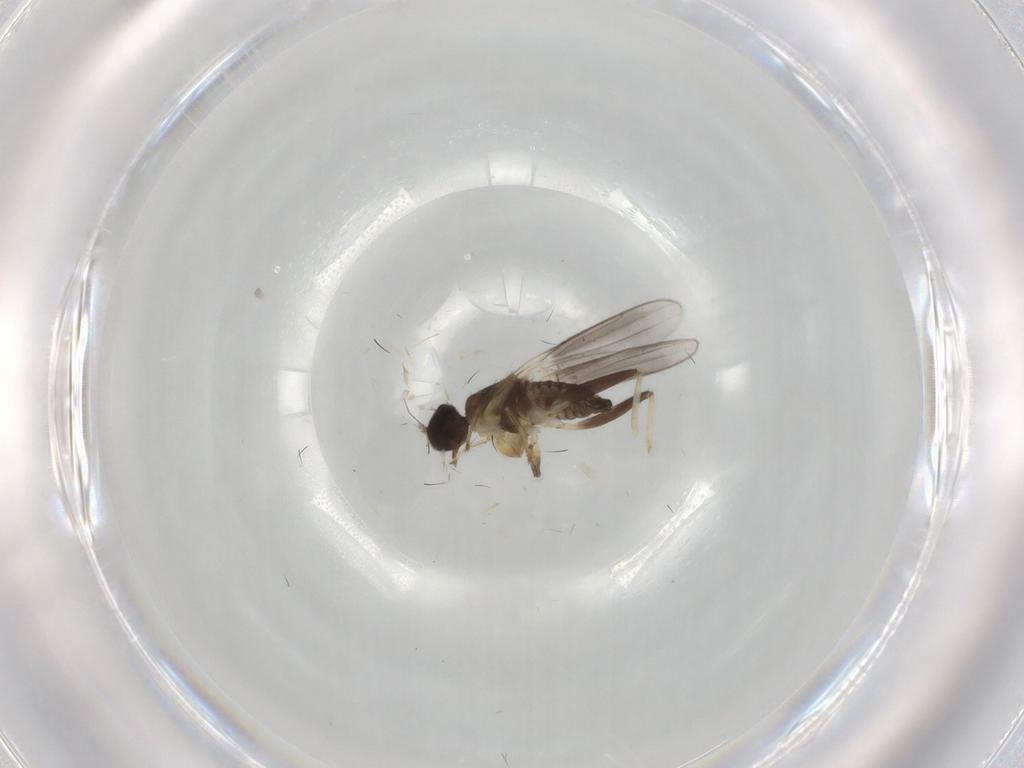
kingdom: Animalia
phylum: Arthropoda
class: Insecta
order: Diptera
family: Hybotidae
